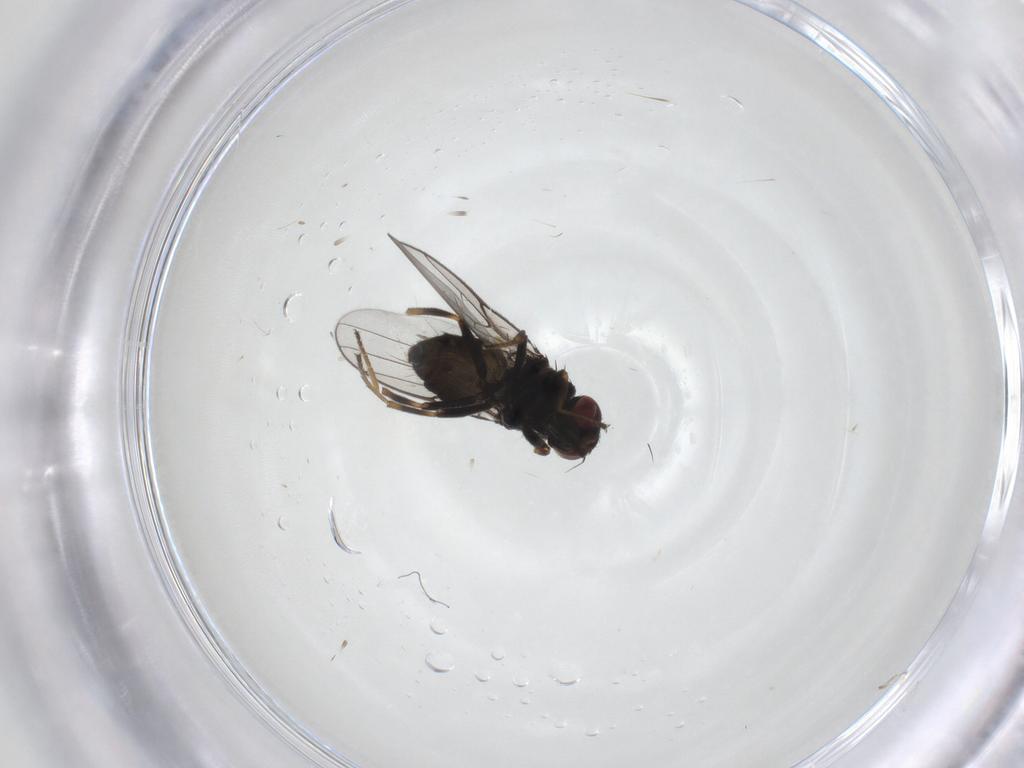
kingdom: Animalia
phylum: Arthropoda
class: Insecta
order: Diptera
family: Chloropidae
